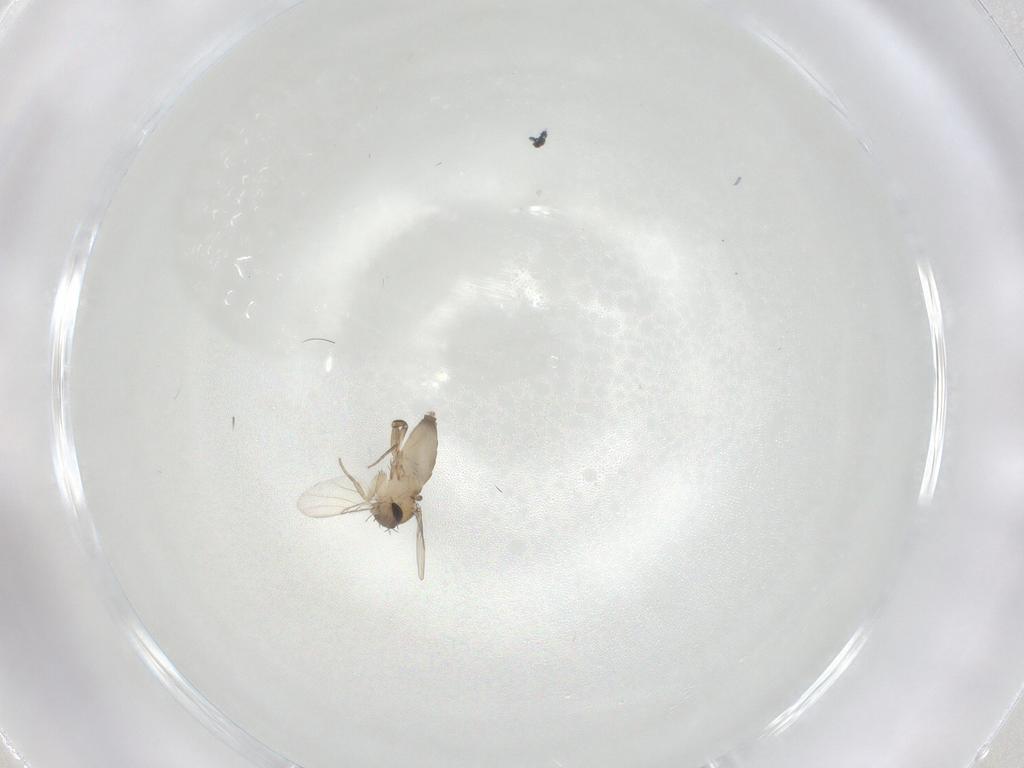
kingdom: Animalia
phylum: Arthropoda
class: Insecta
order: Diptera
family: Phoridae
